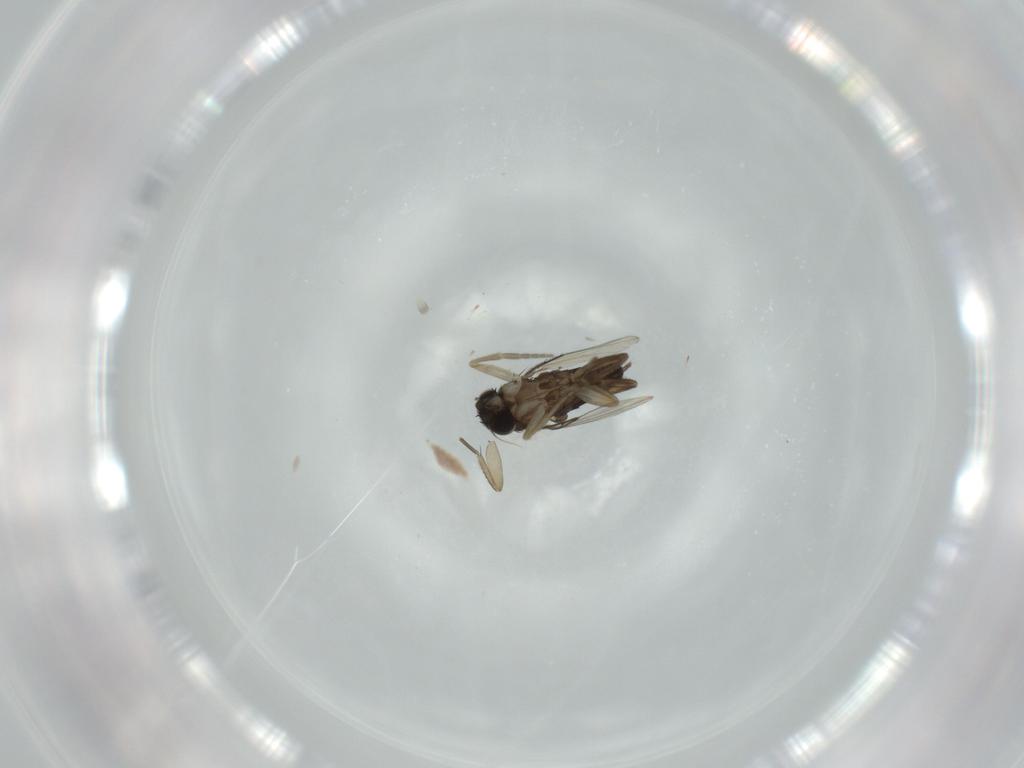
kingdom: Animalia
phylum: Arthropoda
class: Insecta
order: Diptera
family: Phoridae
